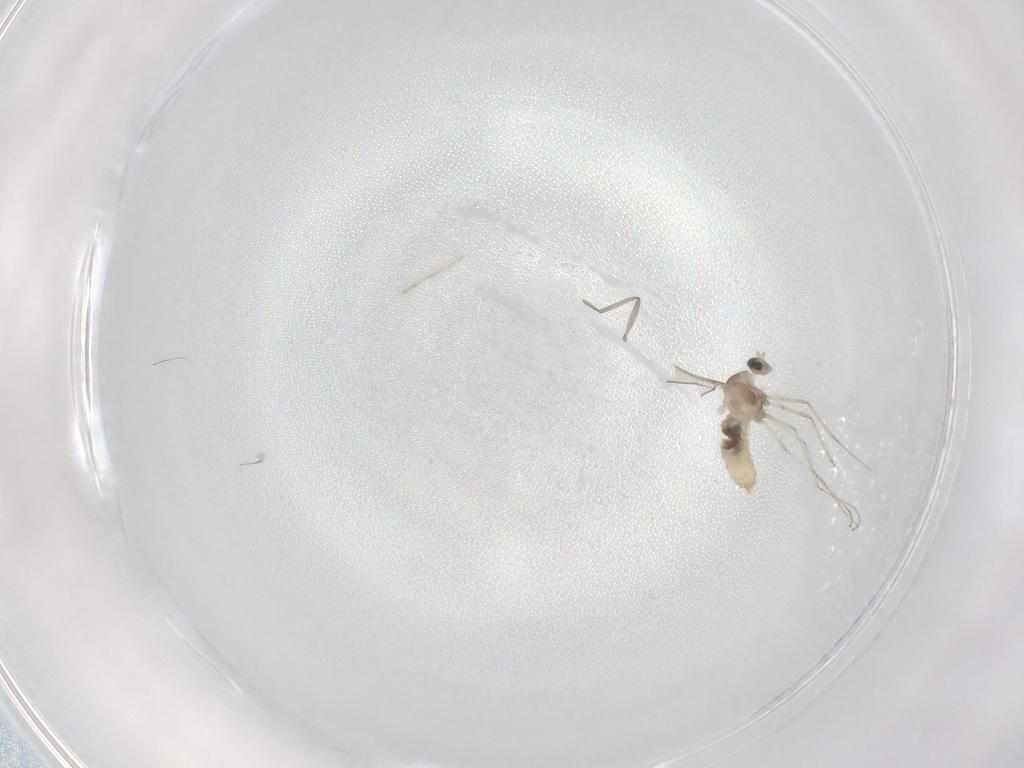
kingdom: Animalia
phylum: Arthropoda
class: Insecta
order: Diptera
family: Cecidomyiidae
